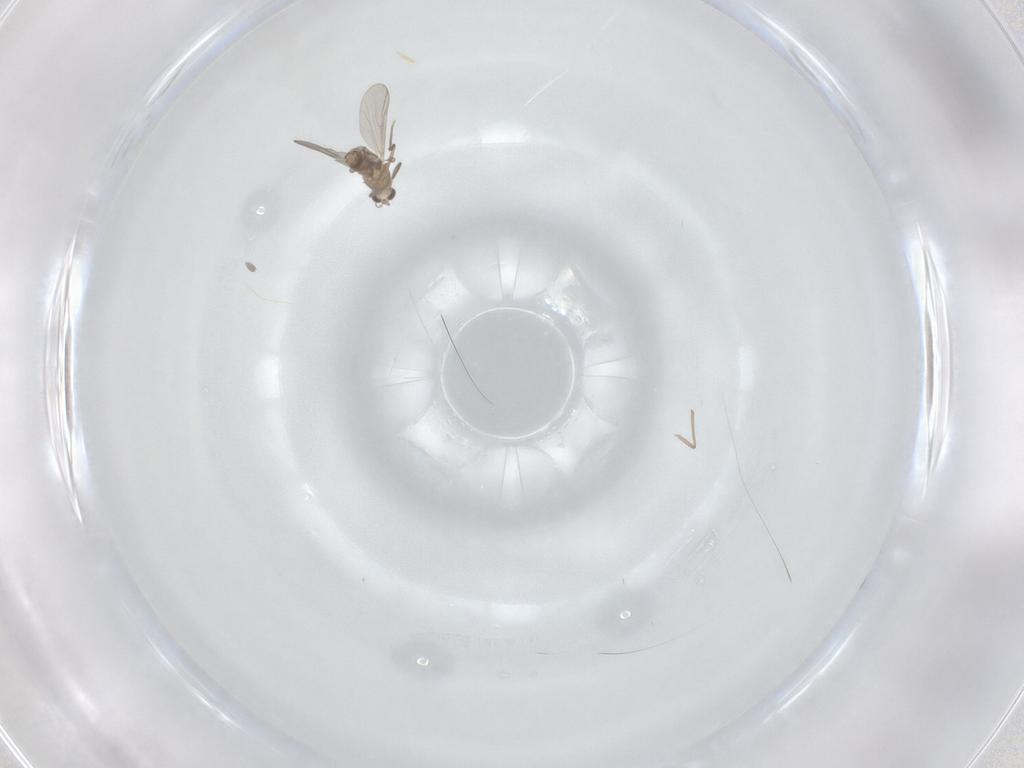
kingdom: Animalia
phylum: Arthropoda
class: Insecta
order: Diptera
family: Chironomidae
